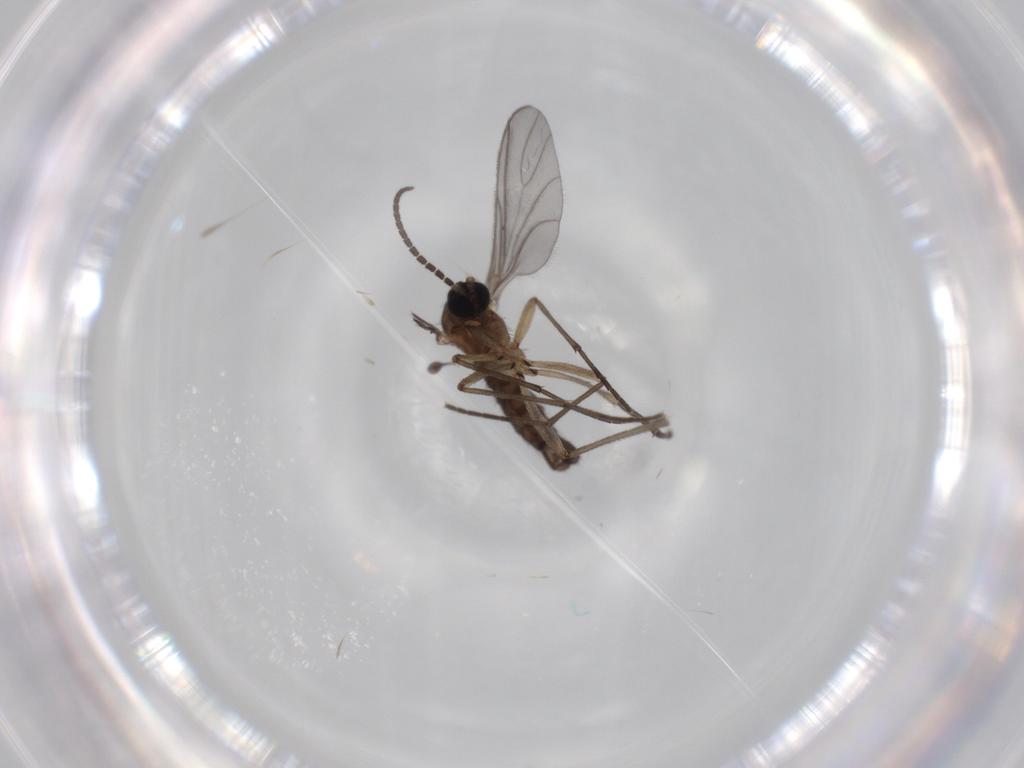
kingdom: Animalia
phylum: Arthropoda
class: Insecta
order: Diptera
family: Sciaridae
